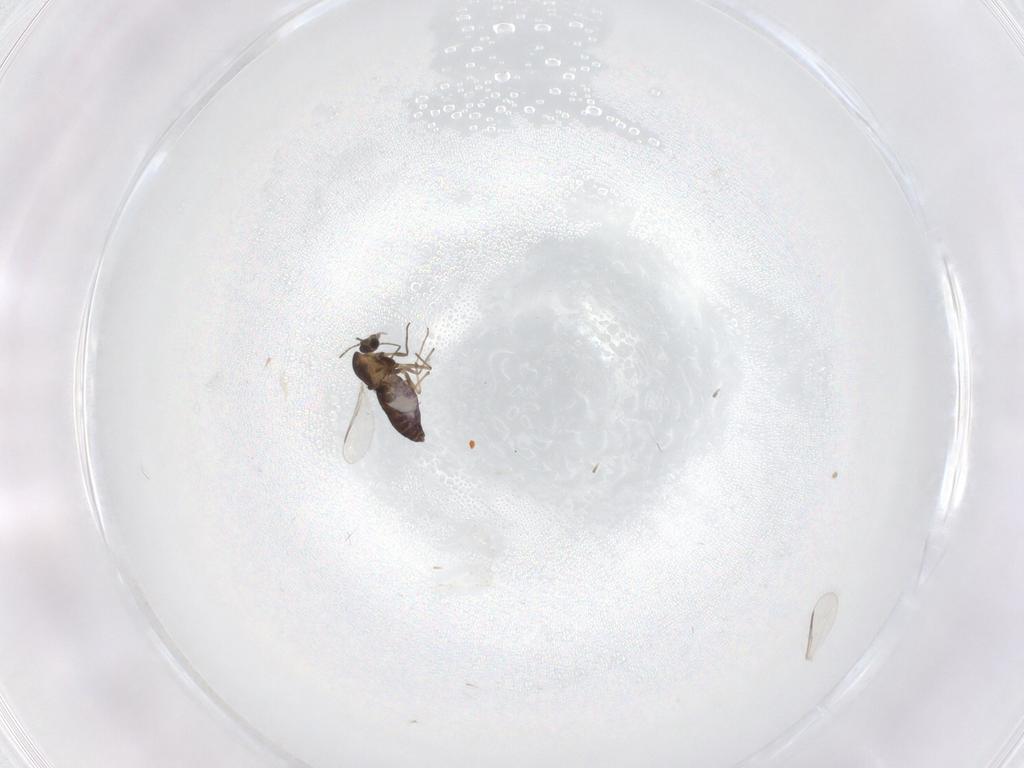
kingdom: Animalia
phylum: Arthropoda
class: Insecta
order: Diptera
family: Chironomidae
